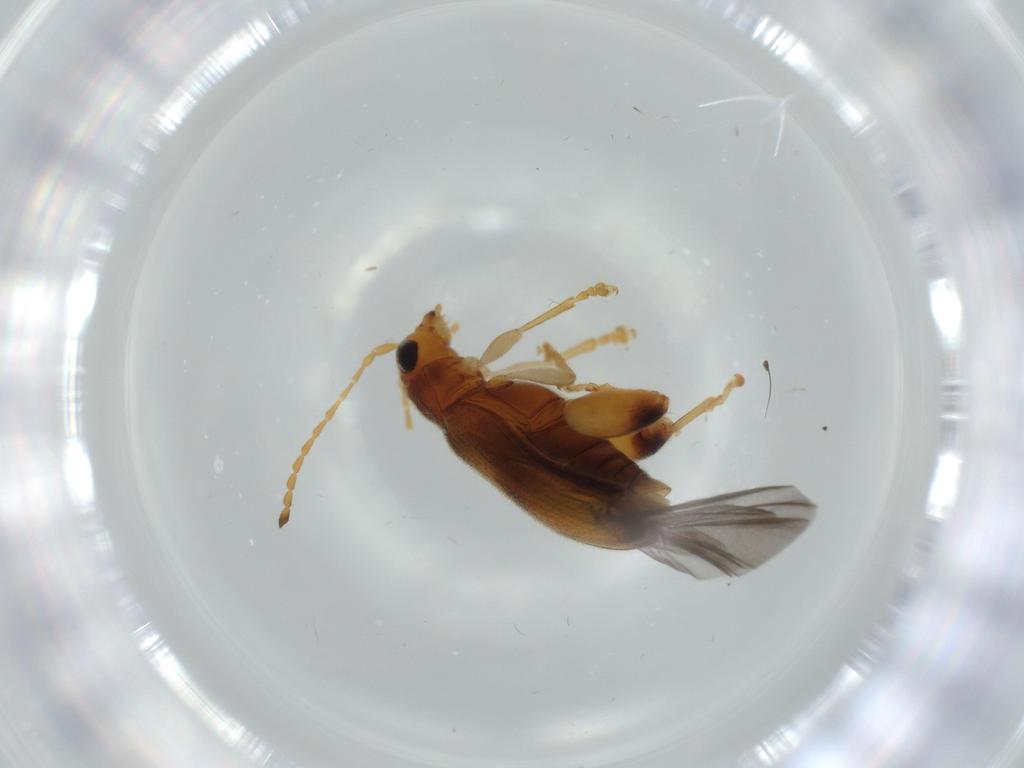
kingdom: Animalia
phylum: Arthropoda
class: Insecta
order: Coleoptera
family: Chrysomelidae
